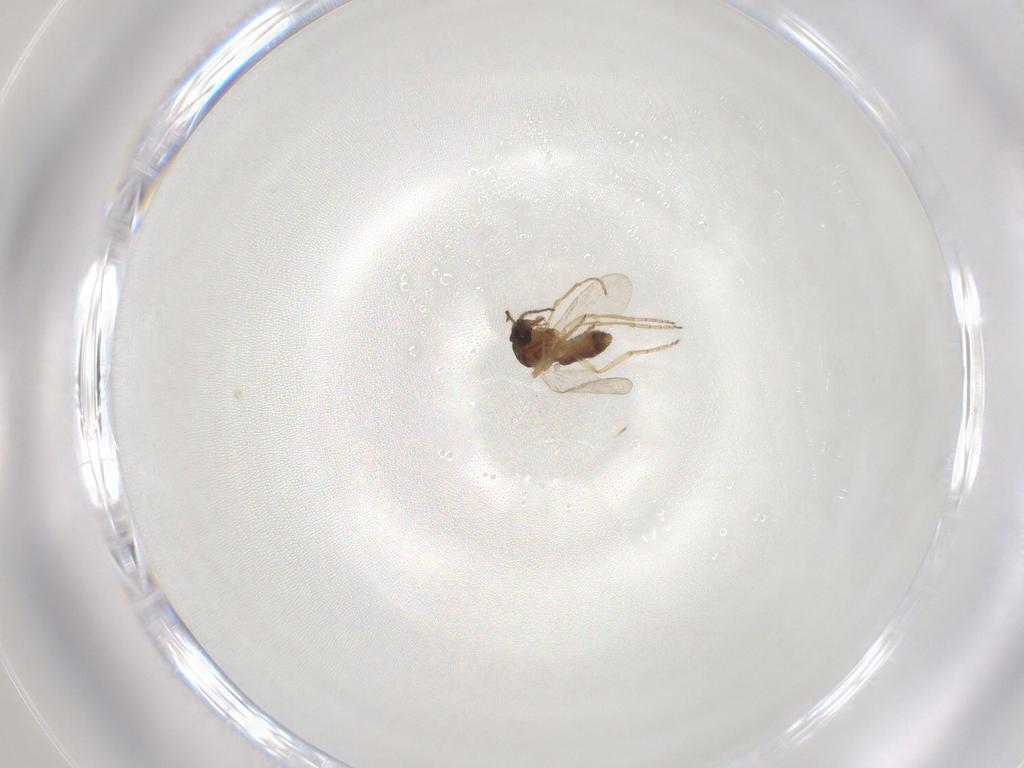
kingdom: Animalia
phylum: Arthropoda
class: Insecta
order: Diptera
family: Ceratopogonidae
